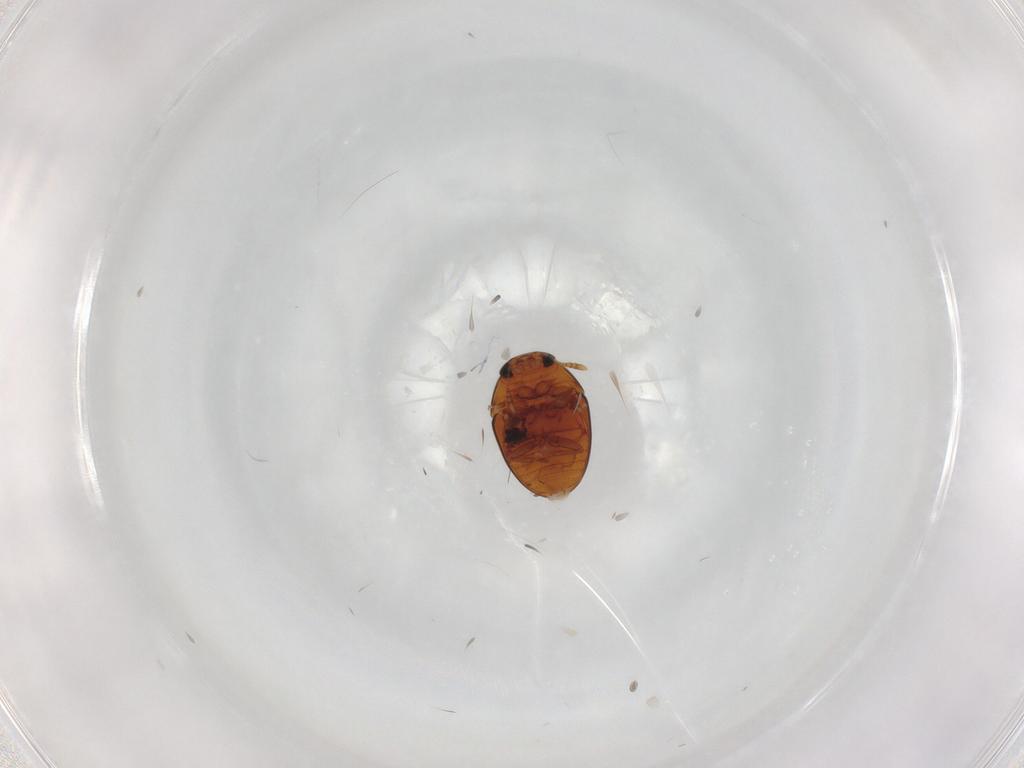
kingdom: Animalia
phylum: Arthropoda
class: Insecta
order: Coleoptera
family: Phalacridae
